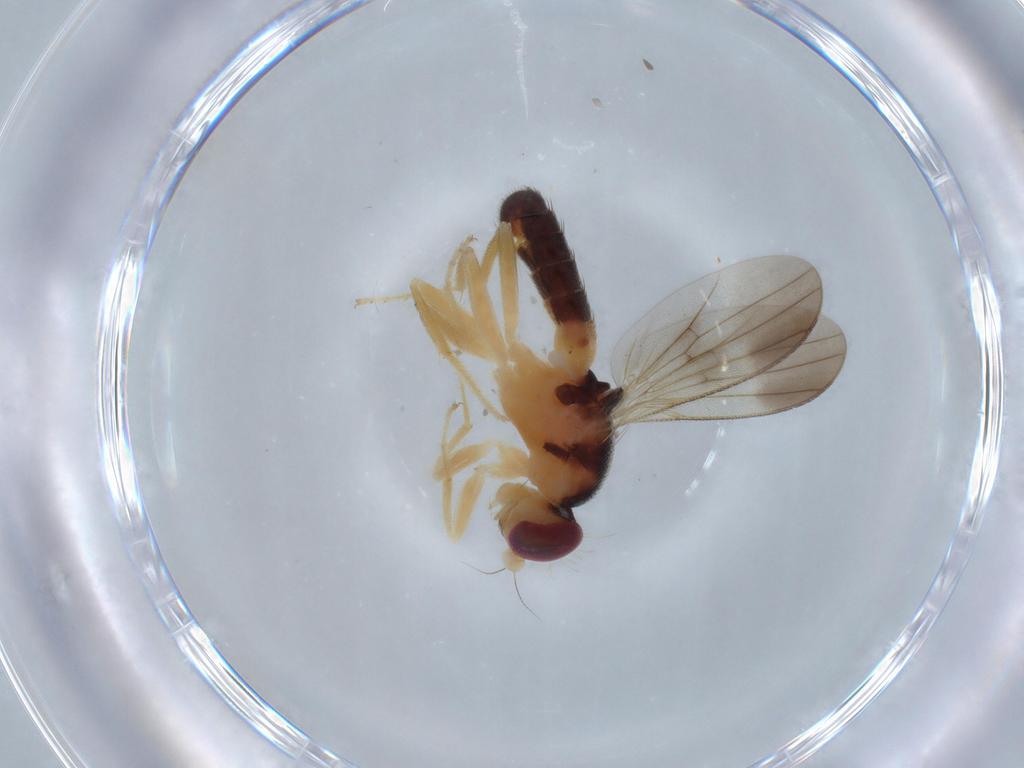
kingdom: Animalia
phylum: Arthropoda
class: Insecta
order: Diptera
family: Clusiidae
